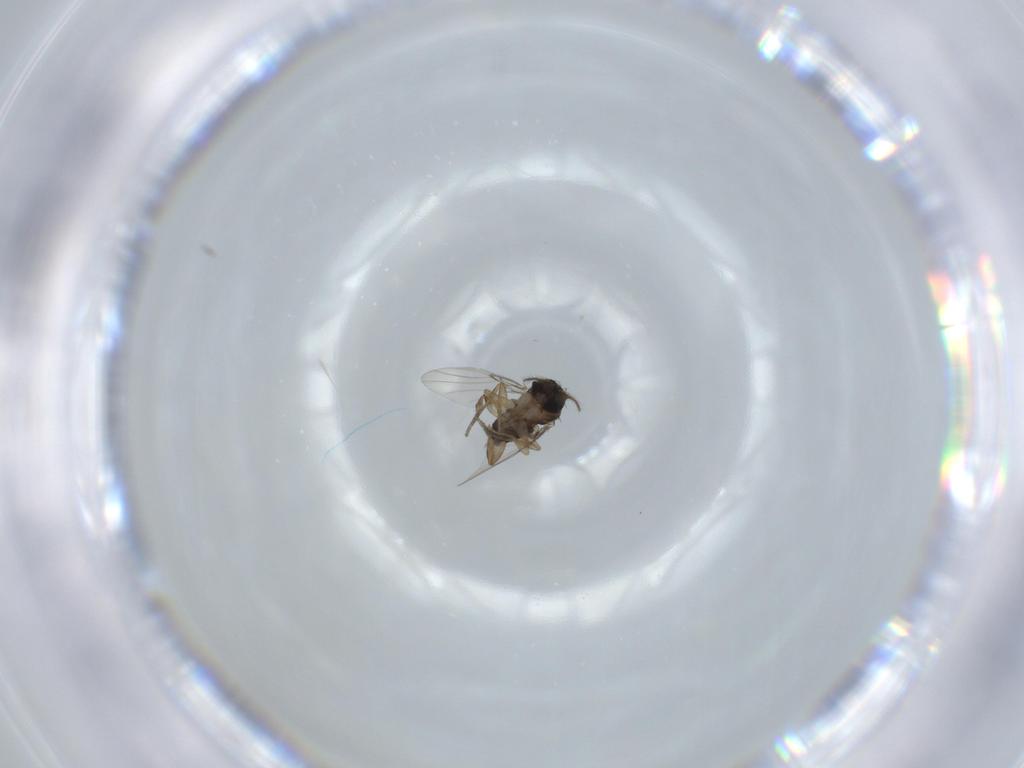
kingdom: Animalia
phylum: Arthropoda
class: Insecta
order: Diptera
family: Phoridae
